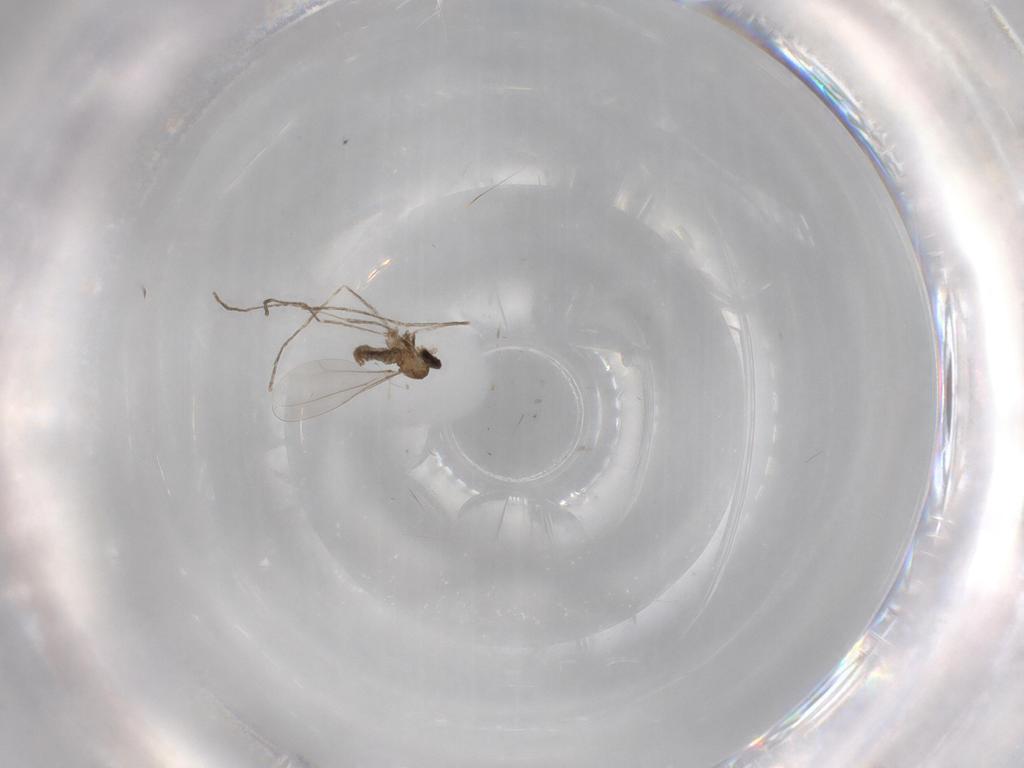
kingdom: Animalia
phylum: Arthropoda
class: Insecta
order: Diptera
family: Cecidomyiidae
